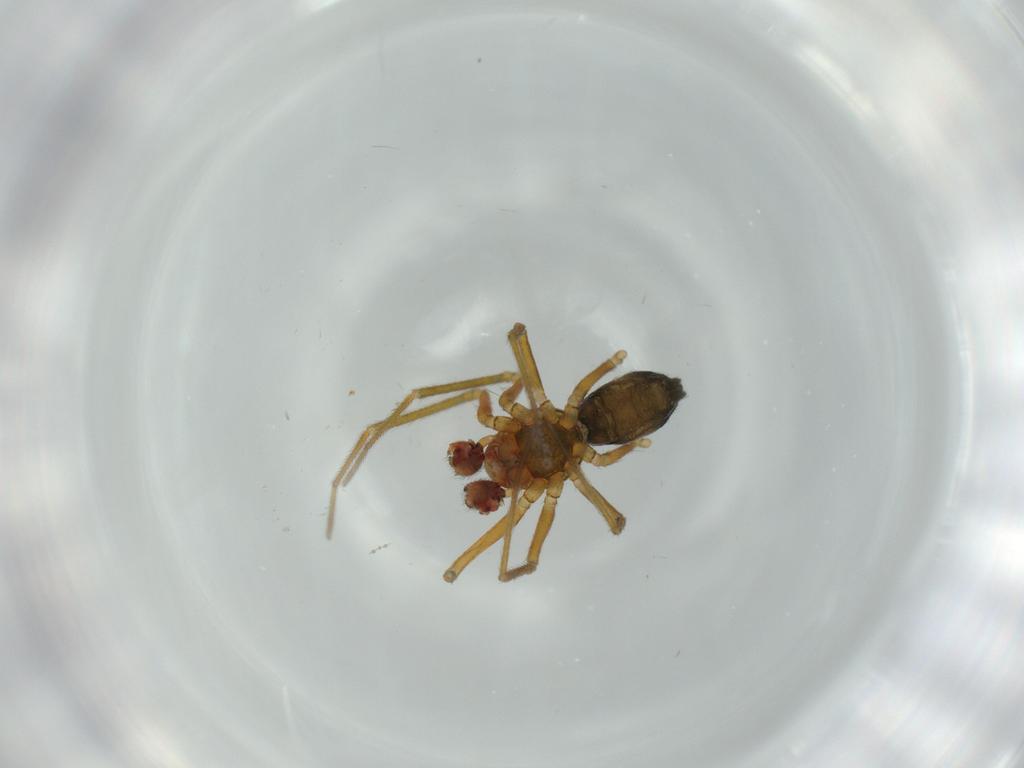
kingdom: Animalia
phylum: Arthropoda
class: Arachnida
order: Araneae
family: Linyphiidae
